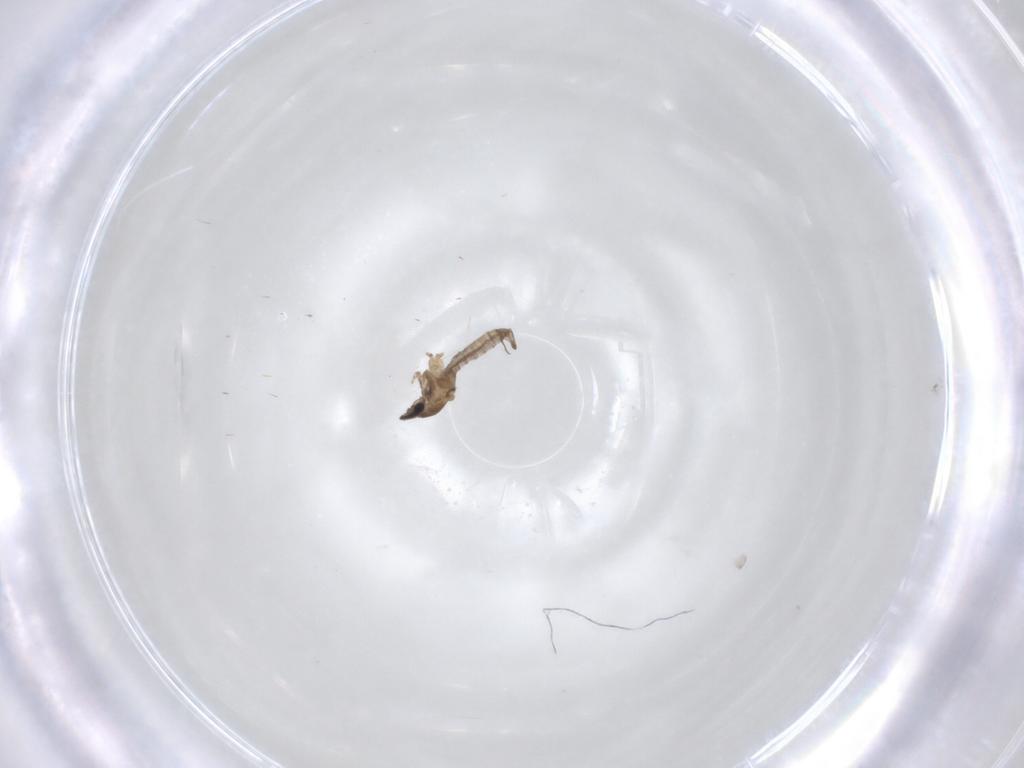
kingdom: Animalia
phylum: Arthropoda
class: Insecta
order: Diptera
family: Cecidomyiidae
